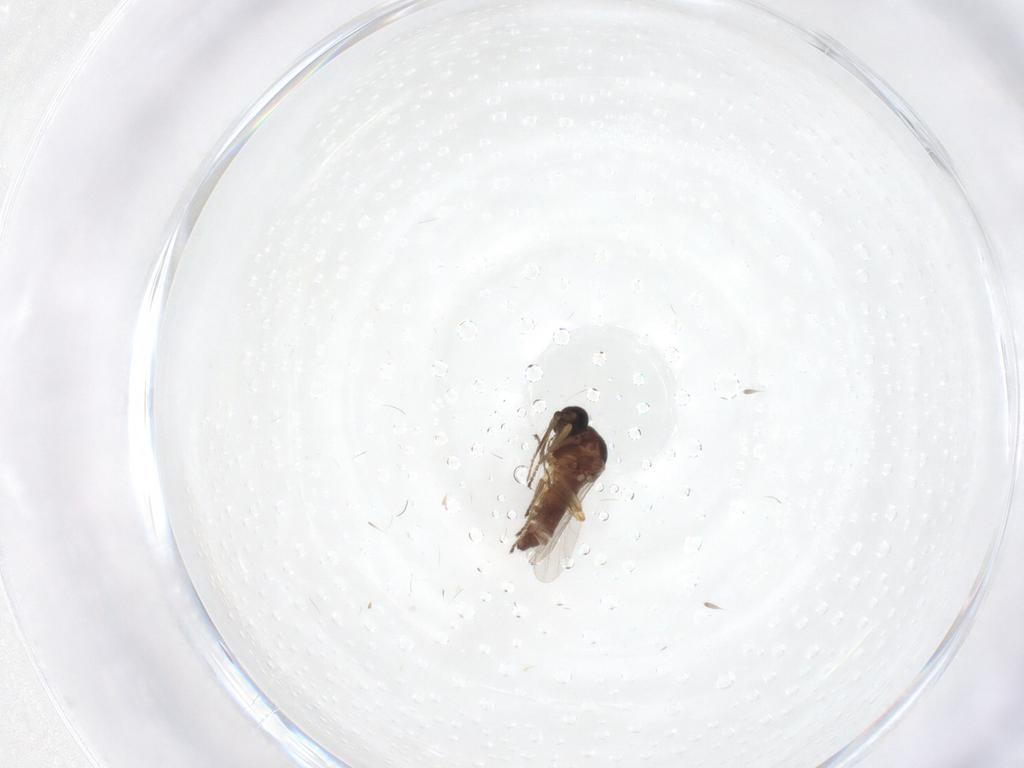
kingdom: Animalia
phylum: Arthropoda
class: Insecta
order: Diptera
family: Ceratopogonidae
